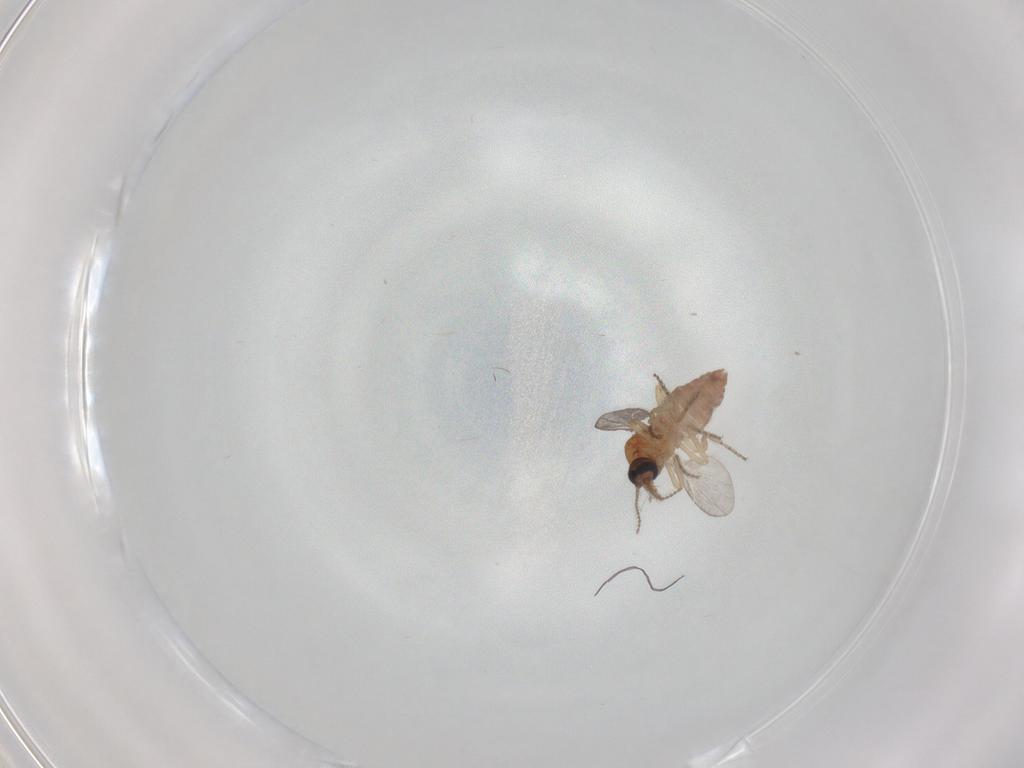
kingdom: Animalia
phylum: Arthropoda
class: Insecta
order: Diptera
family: Ceratopogonidae
